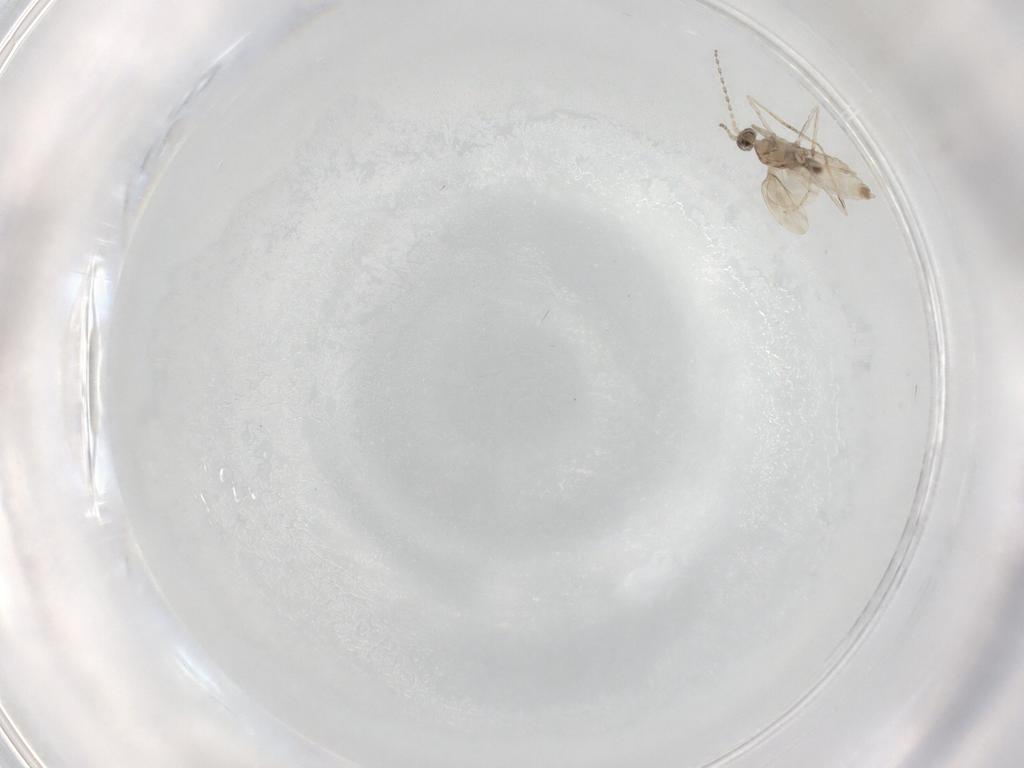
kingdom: Animalia
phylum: Arthropoda
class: Insecta
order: Diptera
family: Cecidomyiidae
